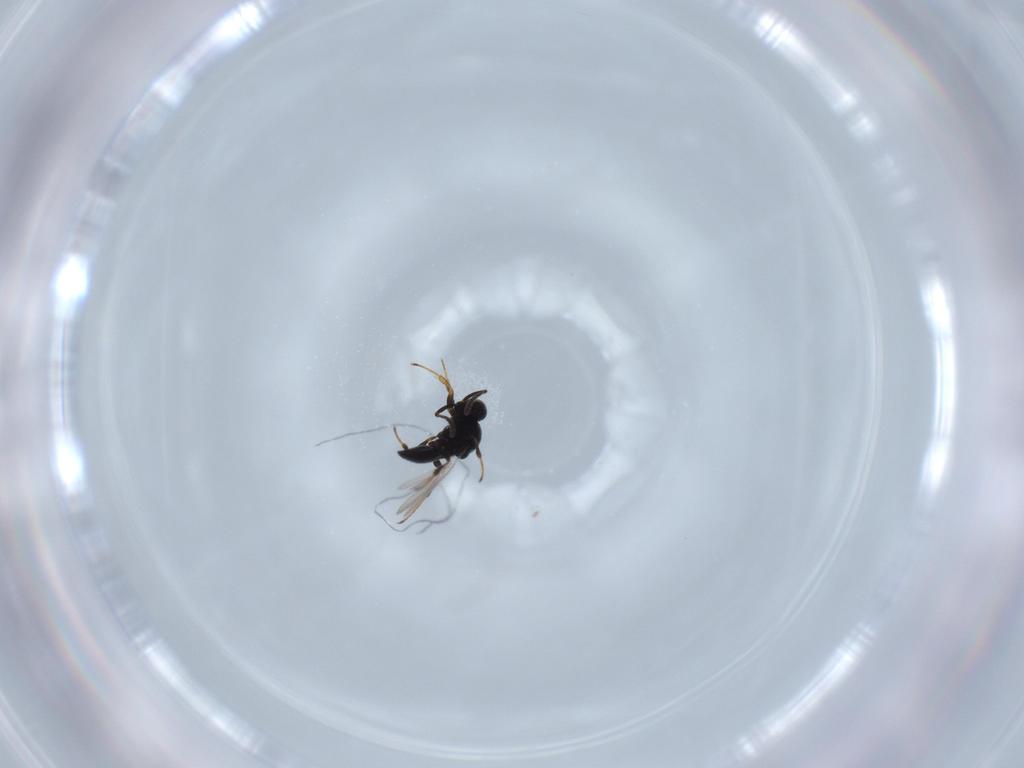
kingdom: Animalia
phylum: Arthropoda
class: Insecta
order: Hymenoptera
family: Platygastridae
